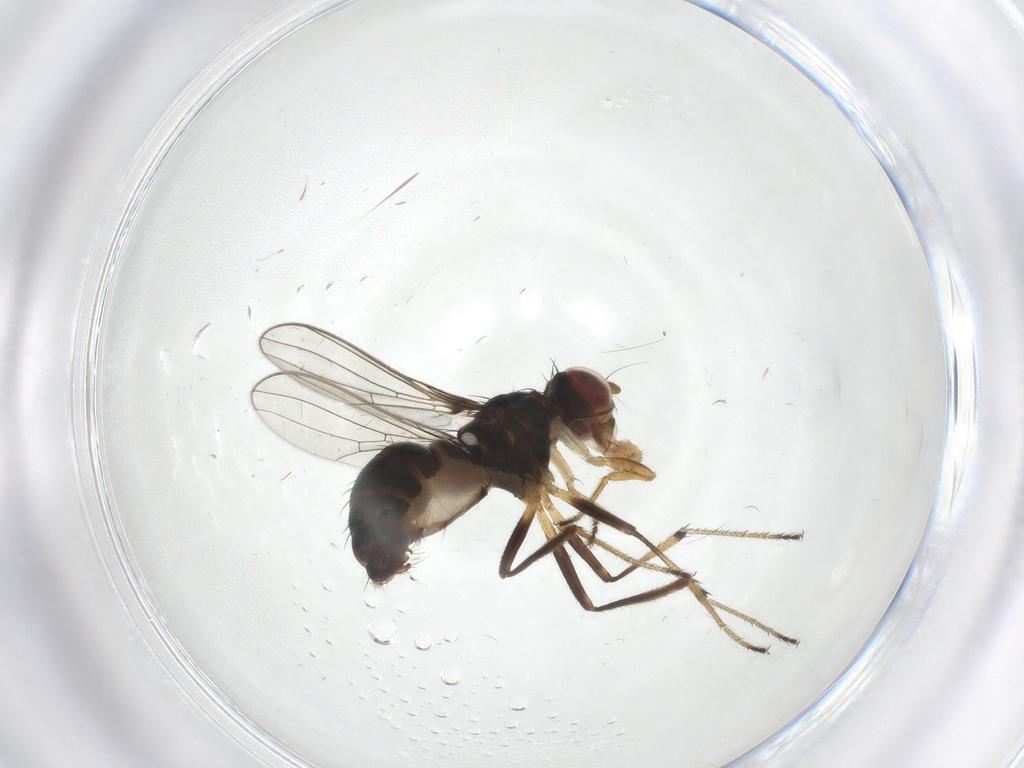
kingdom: Animalia
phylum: Arthropoda
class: Insecta
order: Diptera
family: Sepsidae
